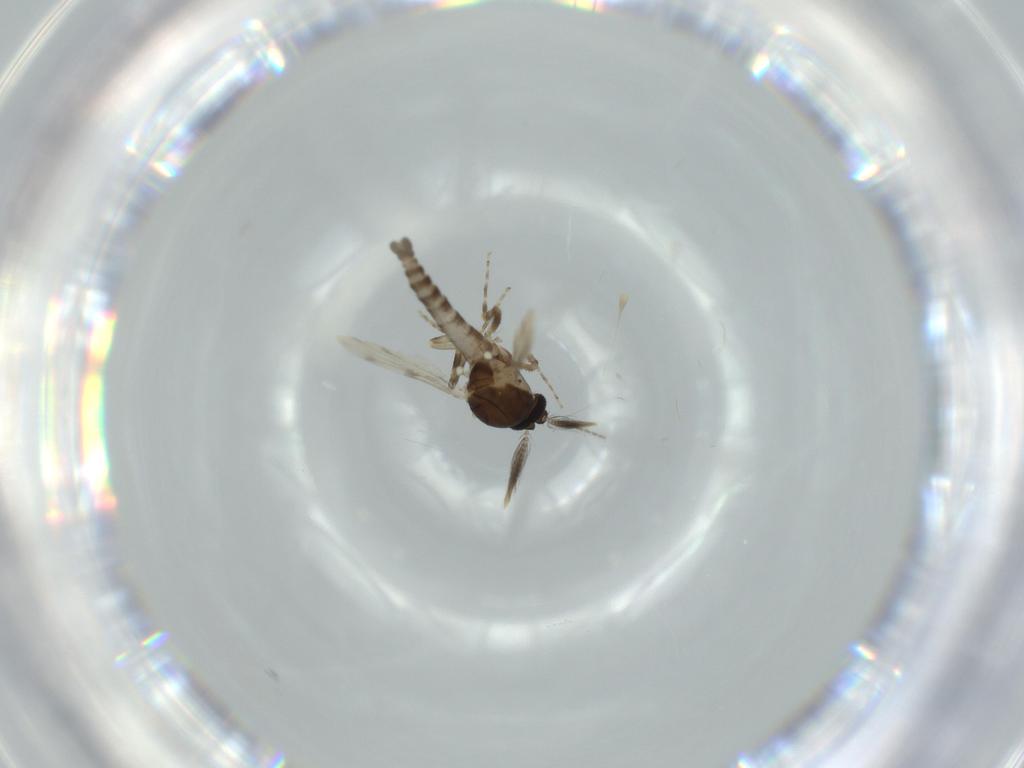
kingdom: Animalia
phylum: Arthropoda
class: Insecta
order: Diptera
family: Ceratopogonidae
